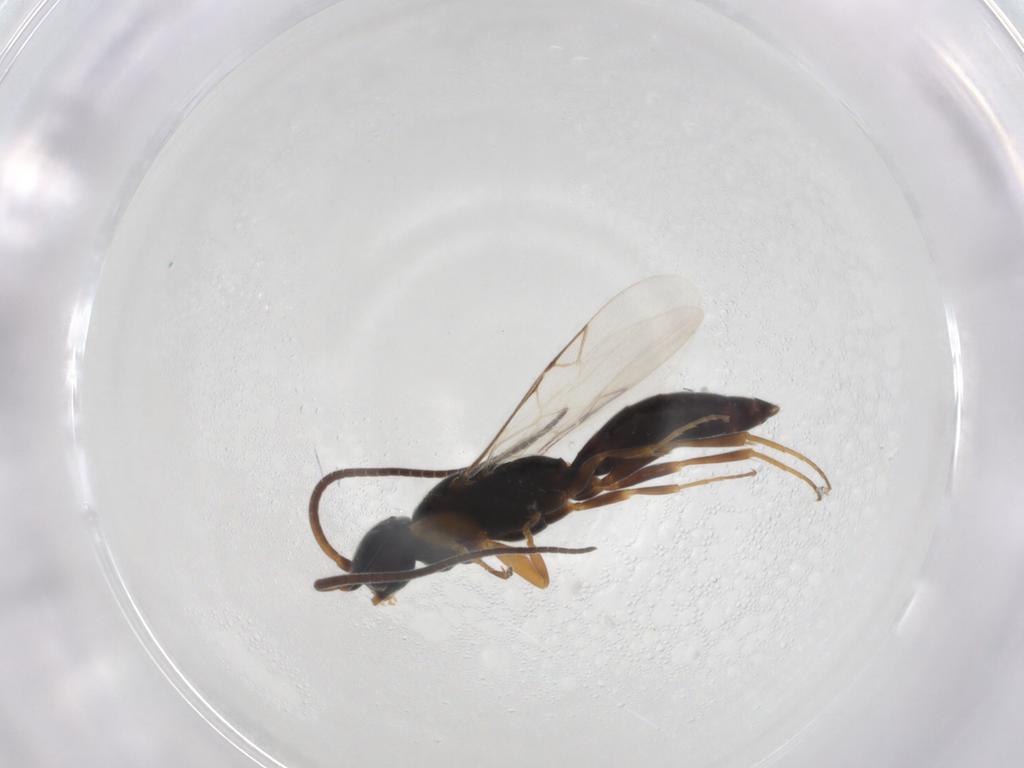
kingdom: Animalia
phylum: Arthropoda
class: Insecta
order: Hymenoptera
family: Sclerogibbidae
